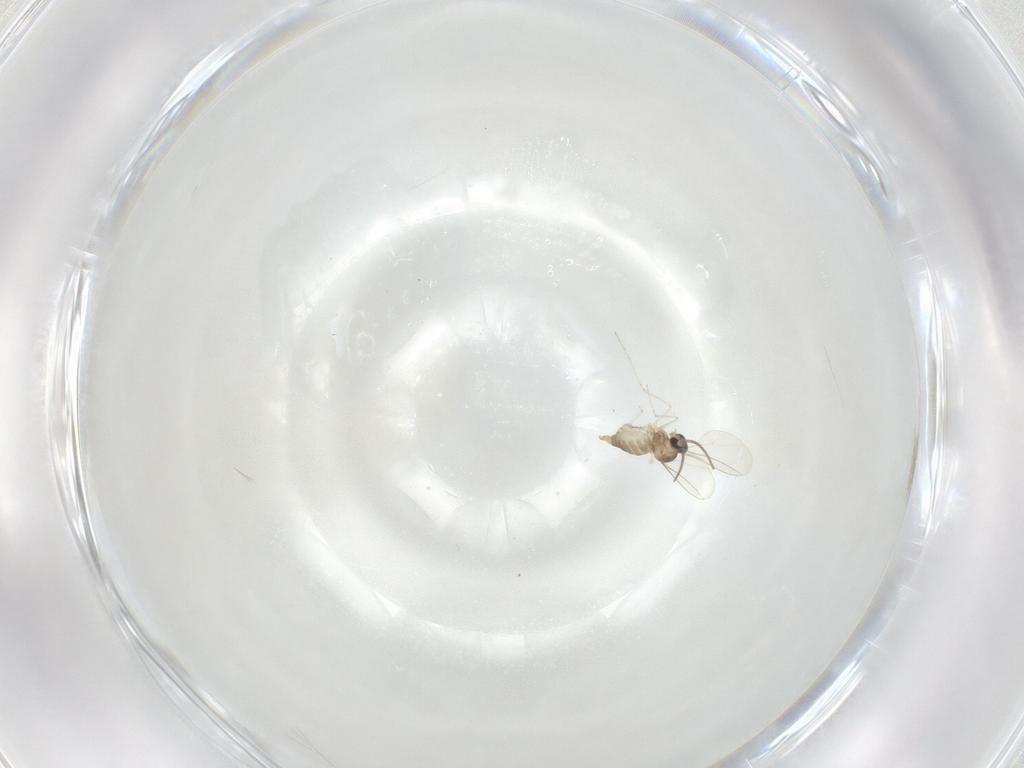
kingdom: Animalia
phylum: Arthropoda
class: Insecta
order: Diptera
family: Cecidomyiidae
